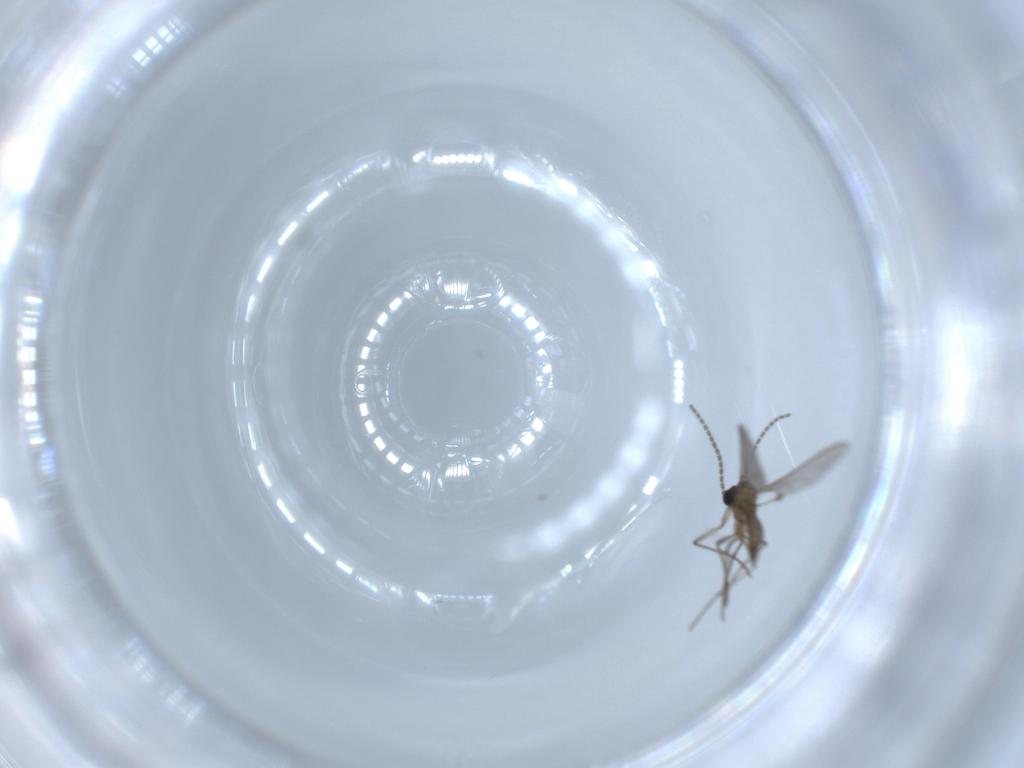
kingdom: Animalia
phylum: Arthropoda
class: Insecta
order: Diptera
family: Sciaridae
